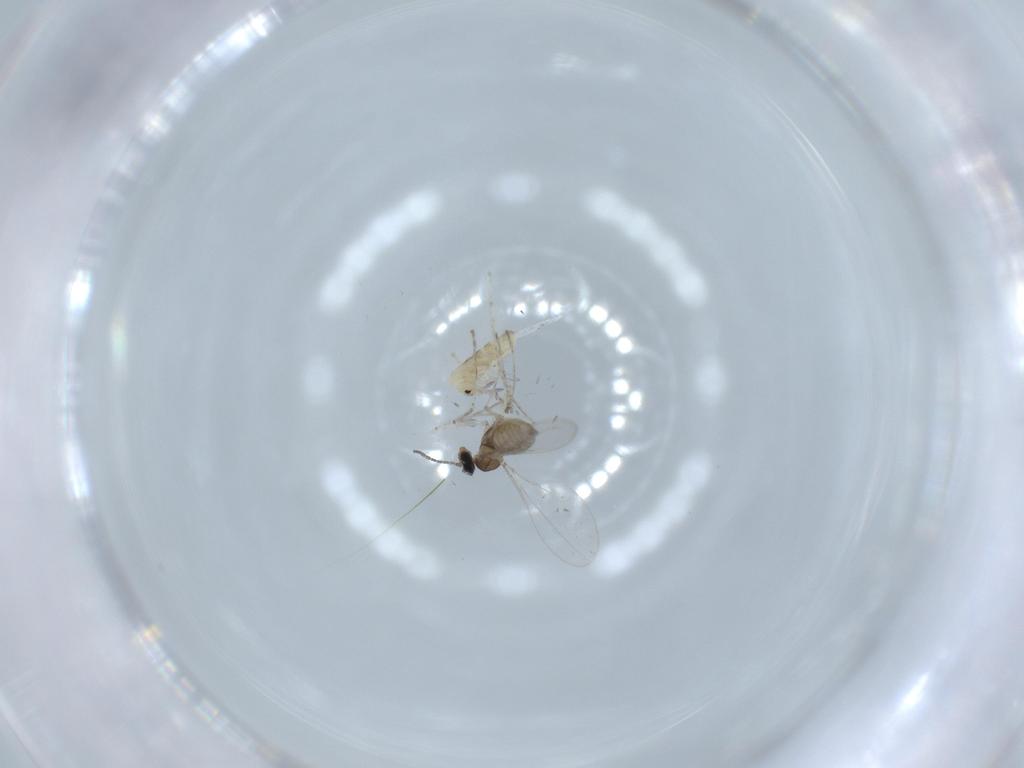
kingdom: Animalia
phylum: Arthropoda
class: Insecta
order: Diptera
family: Cecidomyiidae
